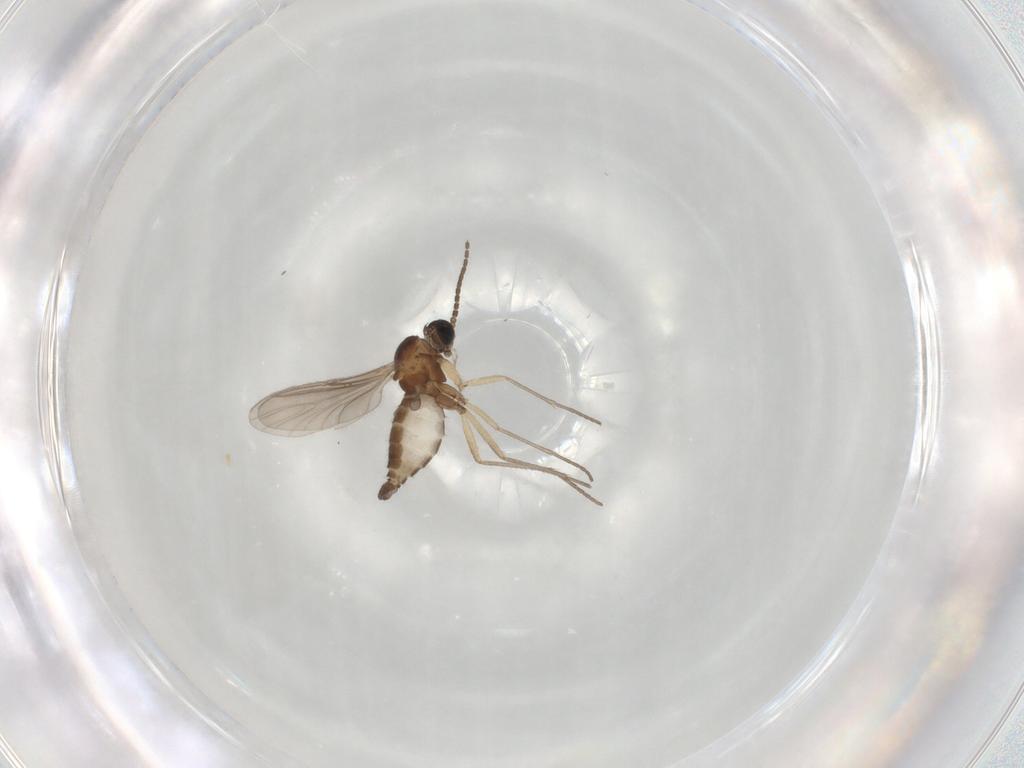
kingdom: Animalia
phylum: Arthropoda
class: Insecta
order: Diptera
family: Sciaridae
